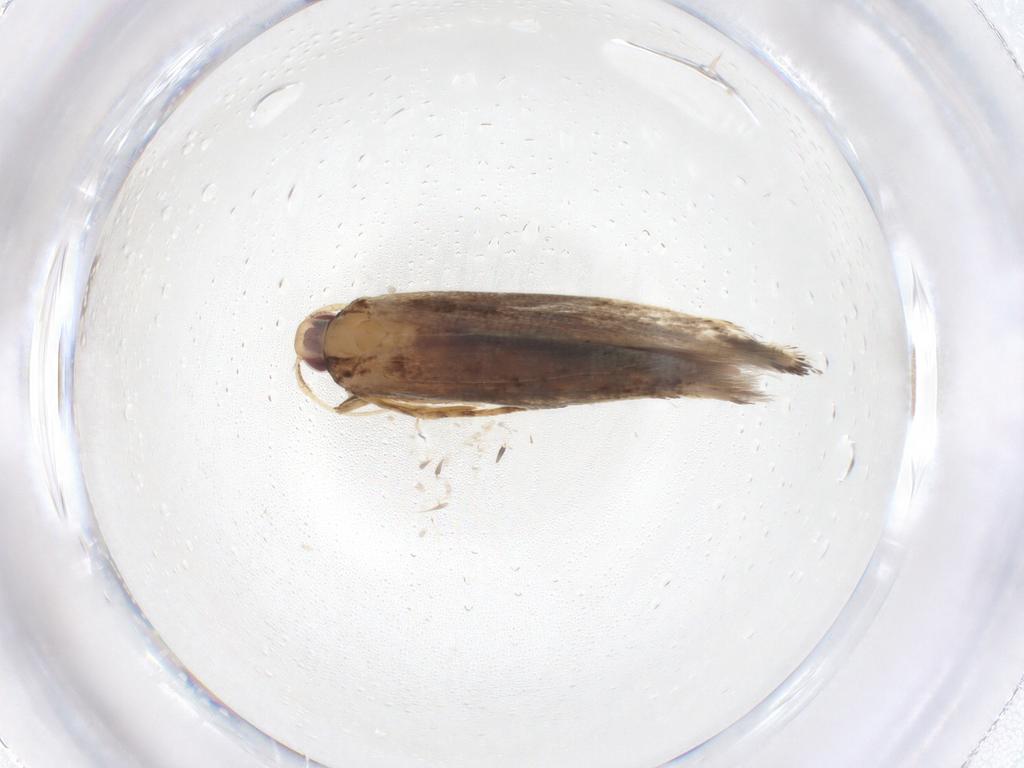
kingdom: Animalia
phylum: Arthropoda
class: Insecta
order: Lepidoptera
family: Cosmopterigidae
